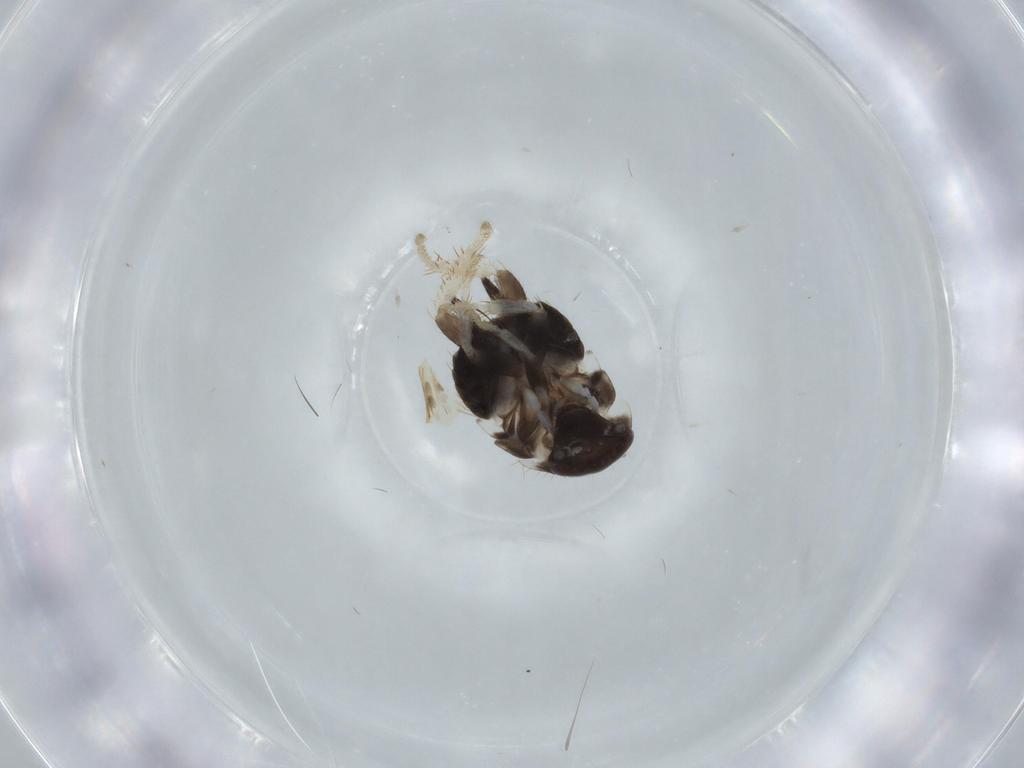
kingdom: Animalia
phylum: Arthropoda
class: Insecta
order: Blattodea
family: Ectobiidae
